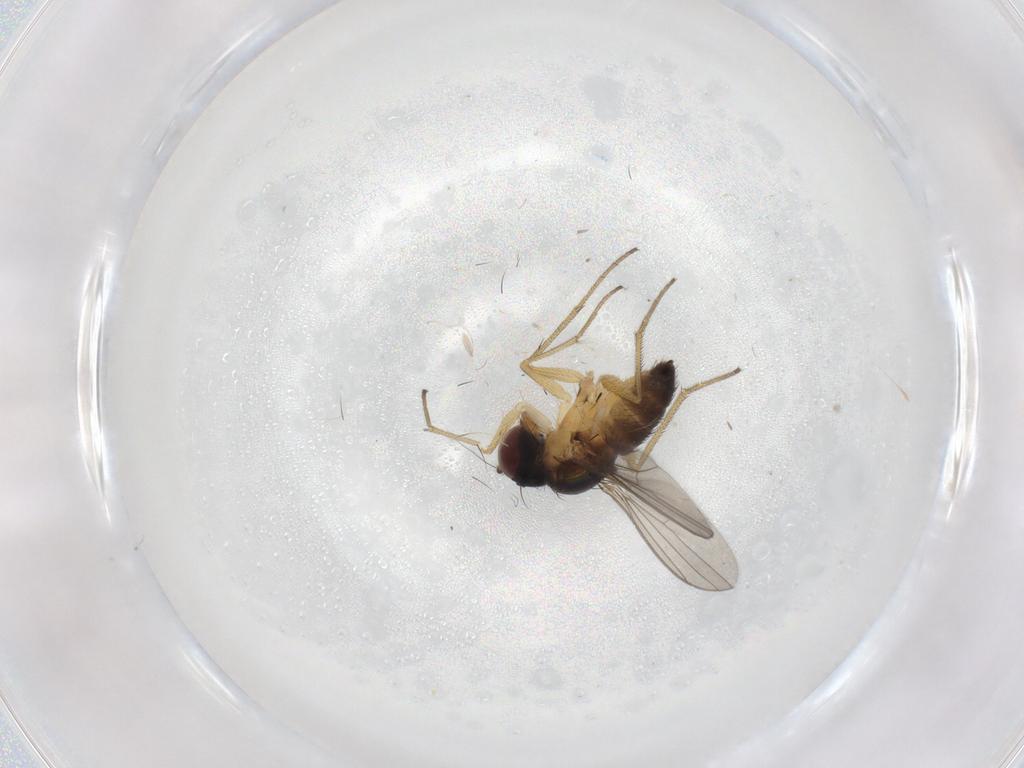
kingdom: Animalia
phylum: Arthropoda
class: Insecta
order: Diptera
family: Dolichopodidae
